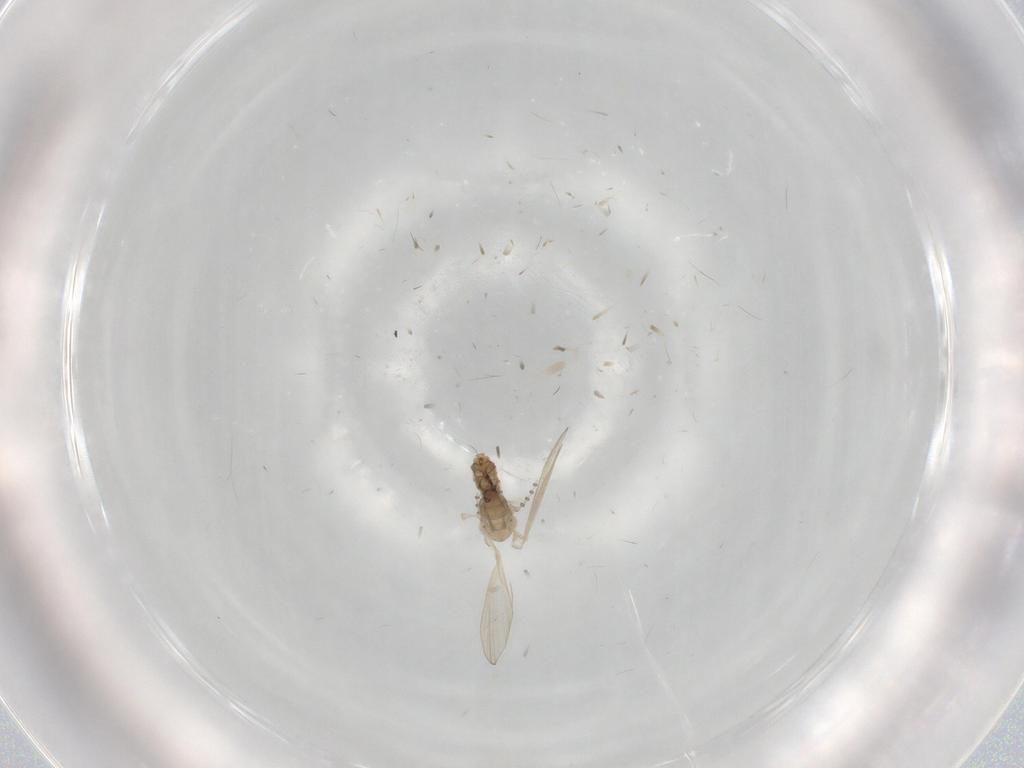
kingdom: Animalia
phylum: Arthropoda
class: Insecta
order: Diptera
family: Psychodidae
